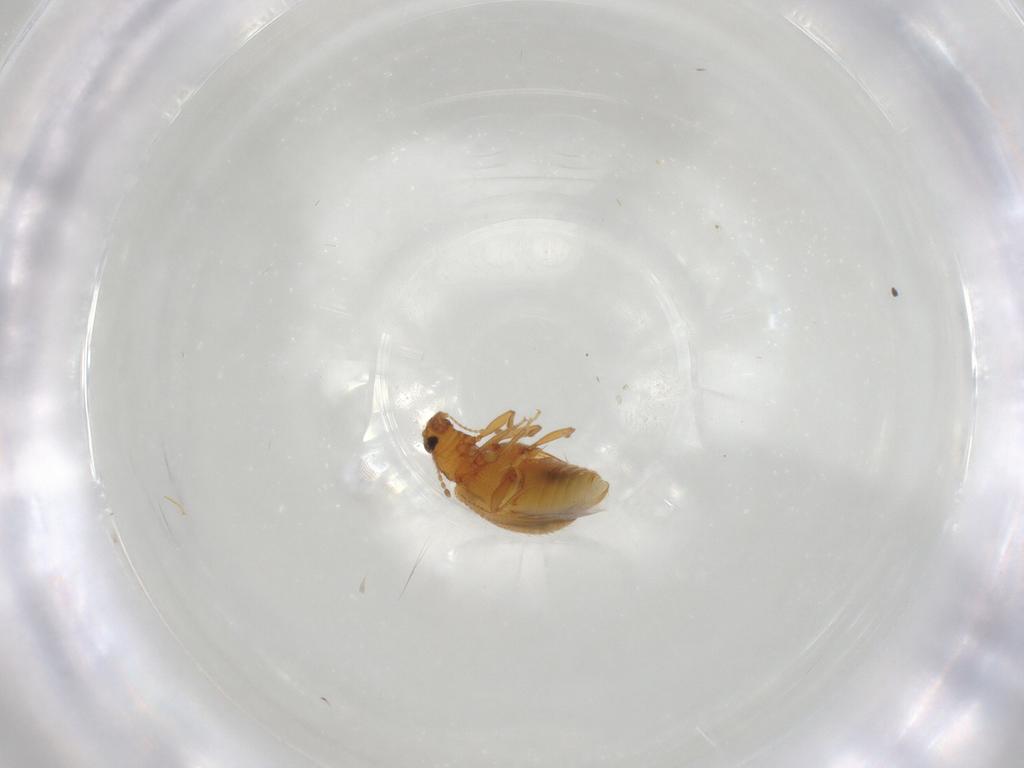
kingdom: Animalia
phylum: Arthropoda
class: Insecta
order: Coleoptera
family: Latridiidae
